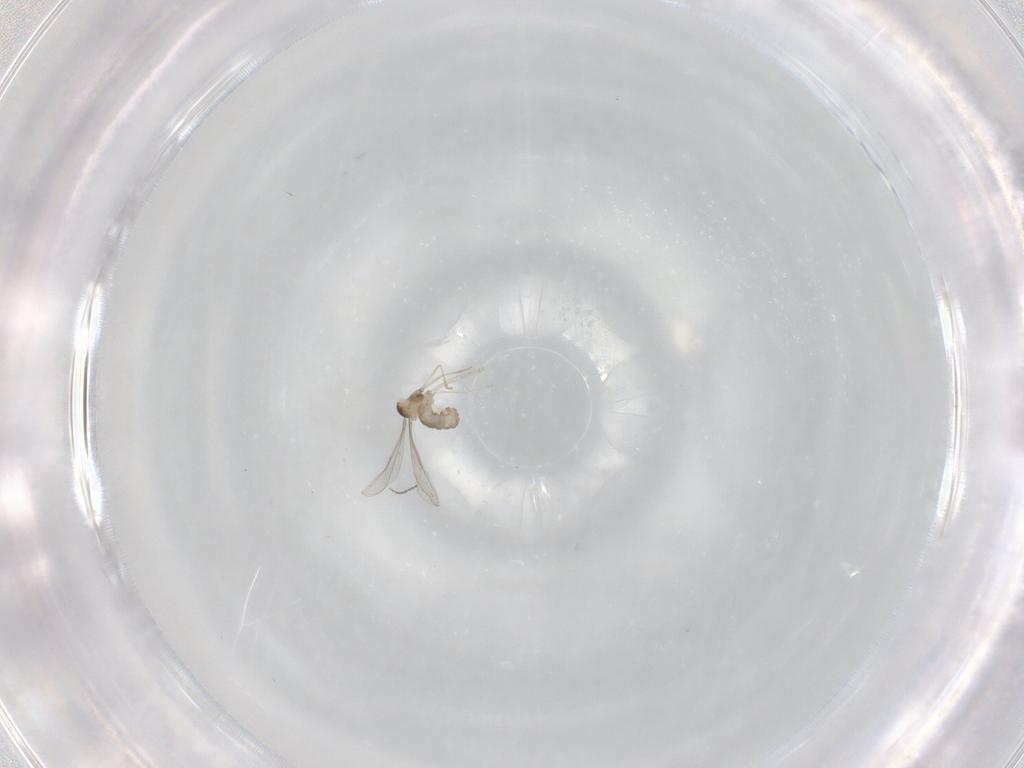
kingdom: Animalia
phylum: Arthropoda
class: Insecta
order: Diptera
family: Cecidomyiidae
